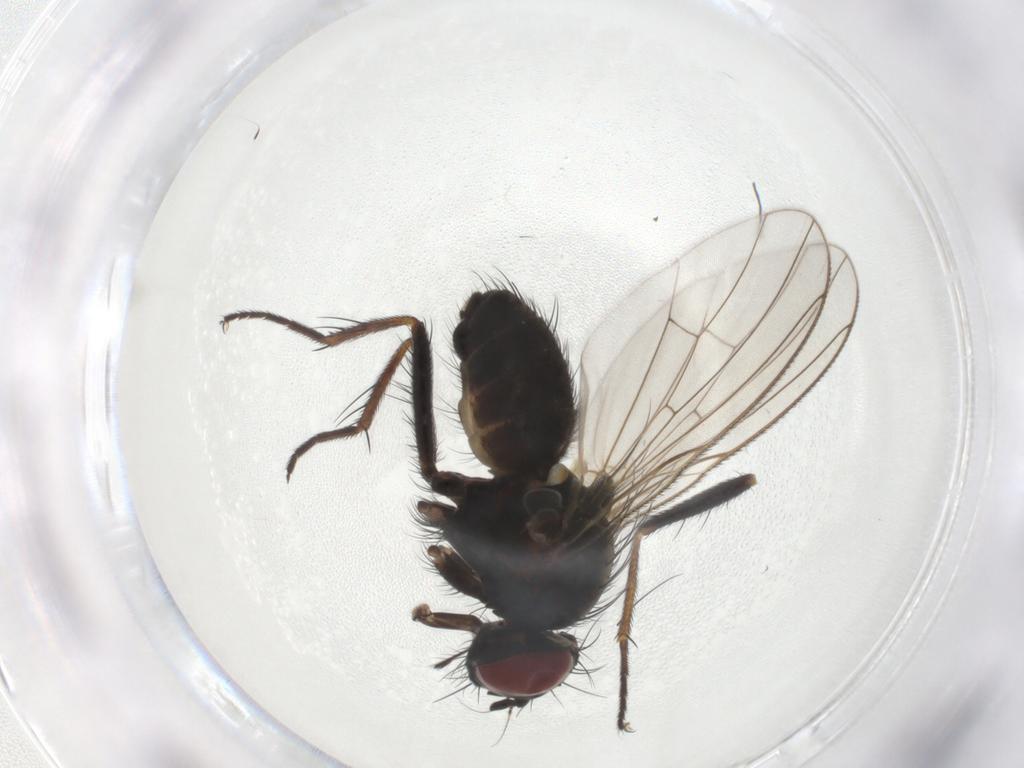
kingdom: Animalia
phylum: Arthropoda
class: Insecta
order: Diptera
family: Muscidae
